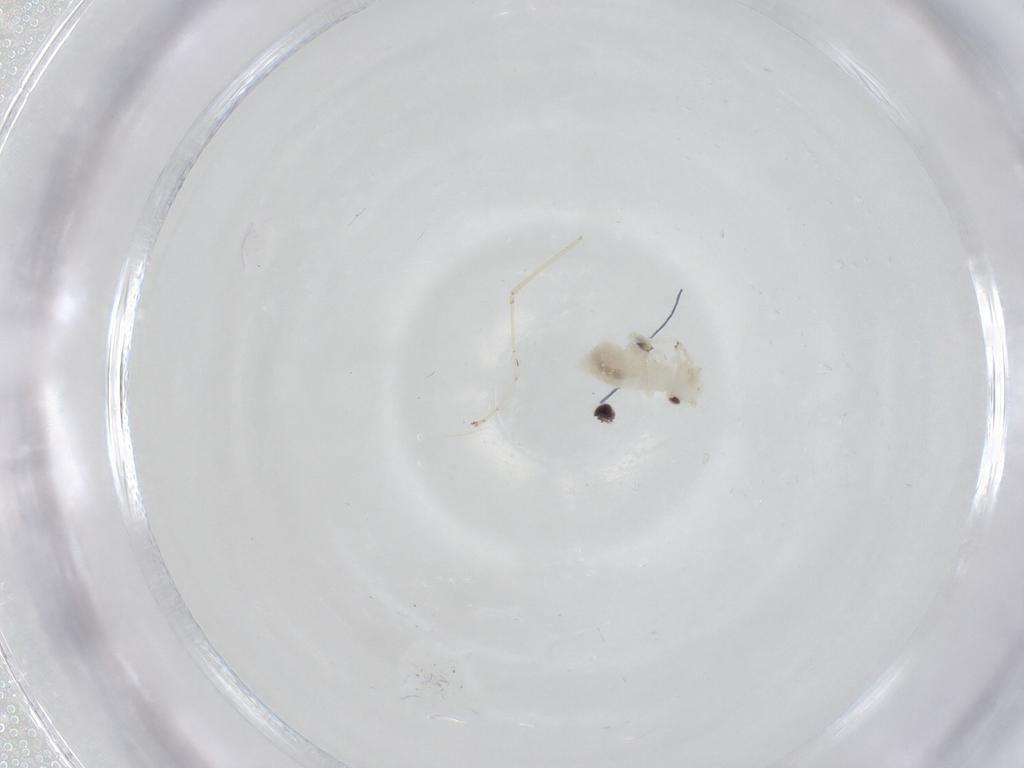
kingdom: Animalia
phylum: Arthropoda
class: Insecta
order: Psocodea
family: Caeciliusidae
